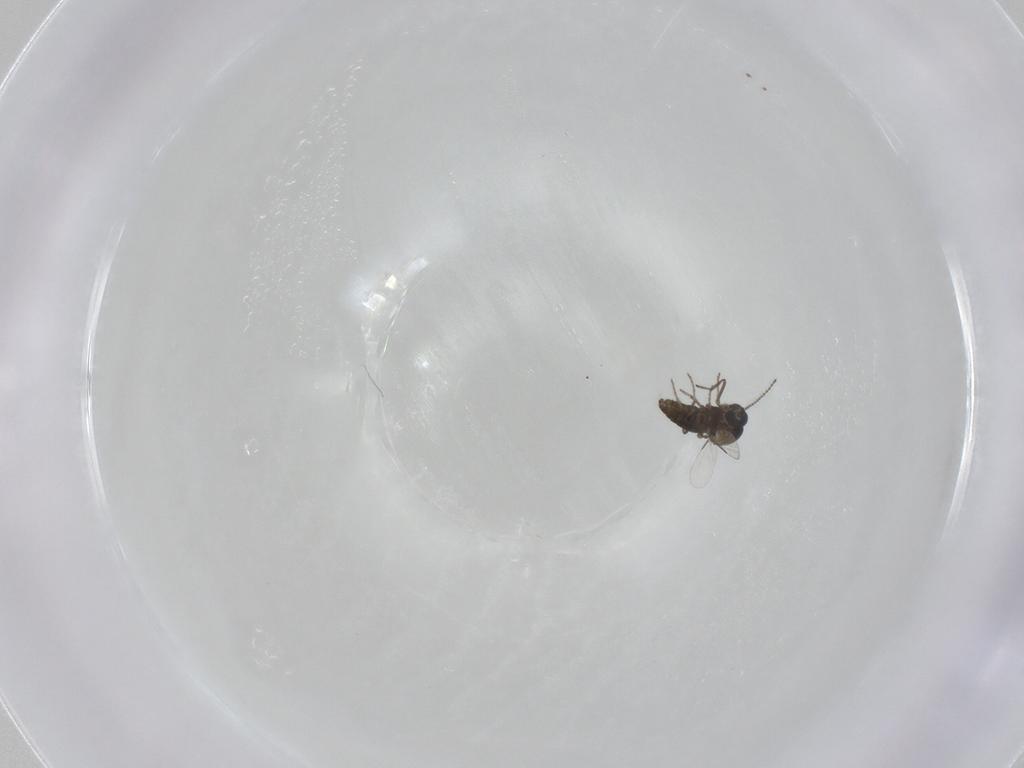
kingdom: Animalia
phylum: Arthropoda
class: Insecta
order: Diptera
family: Ceratopogonidae
